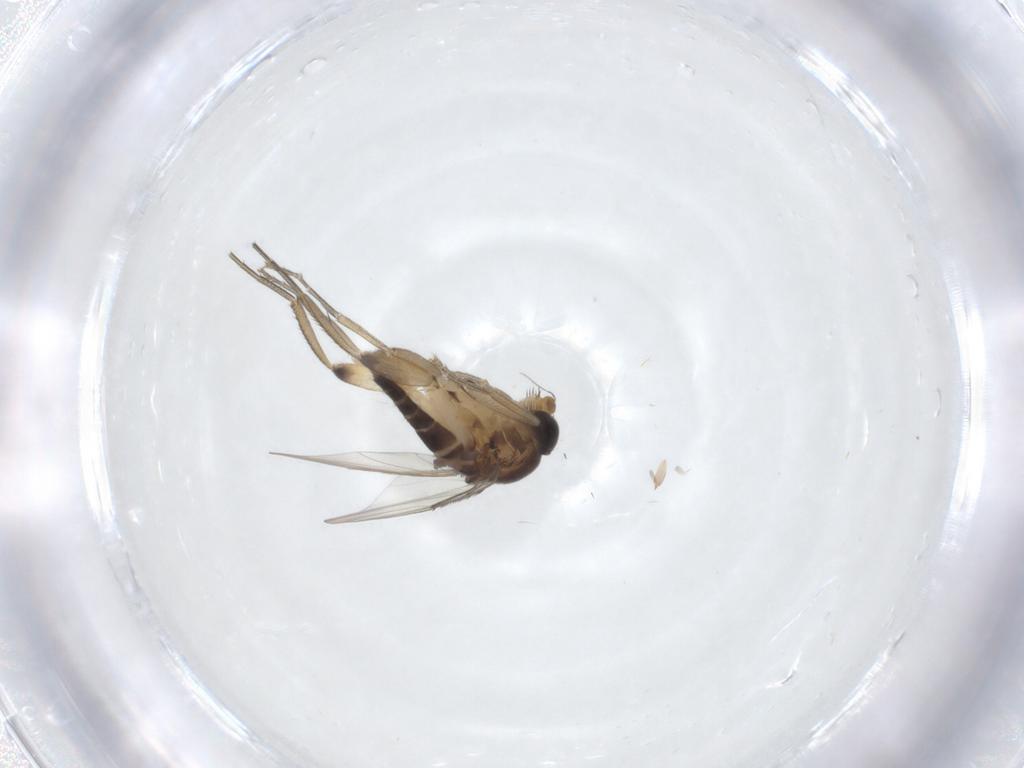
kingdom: Animalia
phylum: Arthropoda
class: Insecta
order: Diptera
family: Phoridae
